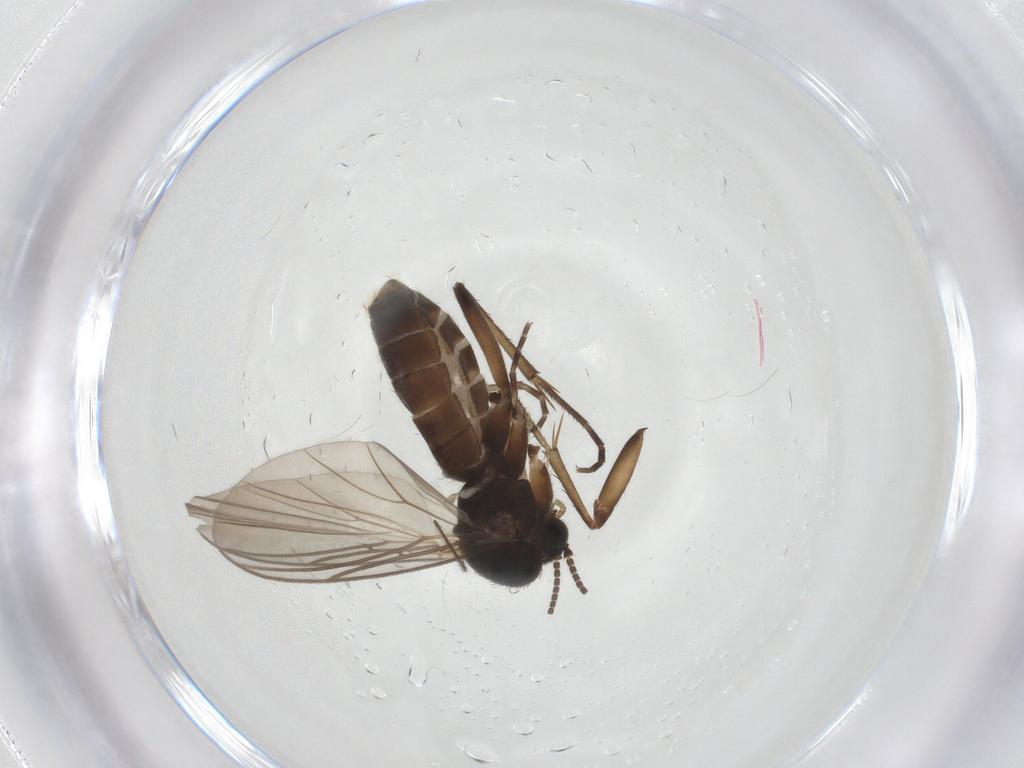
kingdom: Animalia
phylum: Arthropoda
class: Insecta
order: Diptera
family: Mycetophilidae
